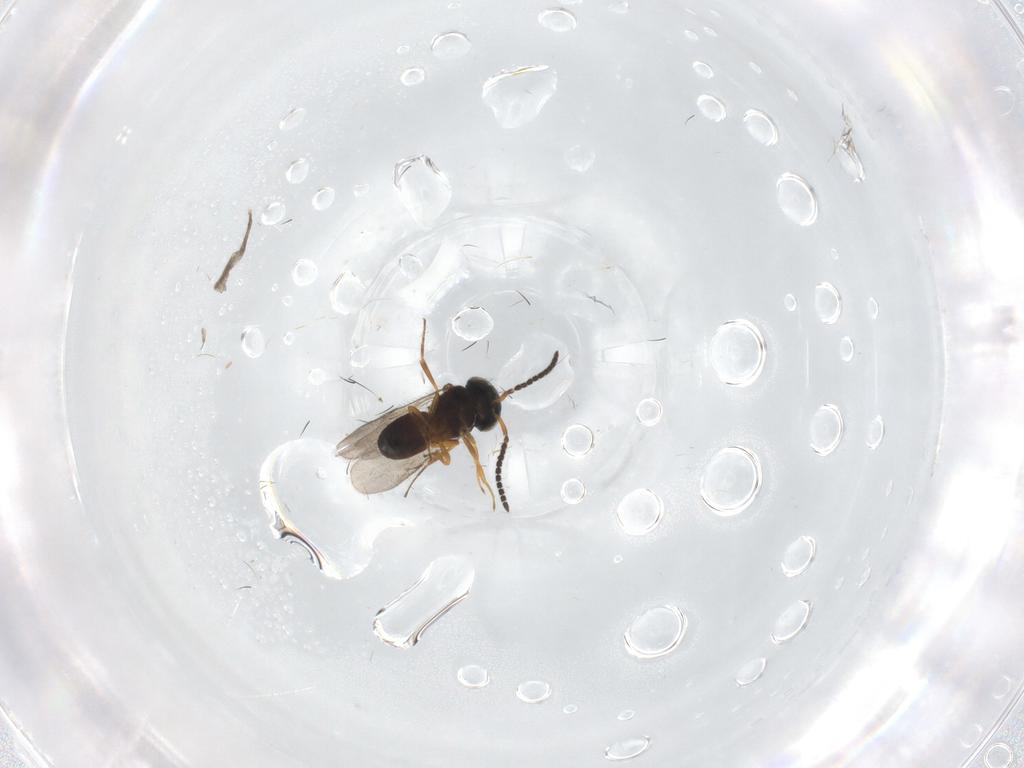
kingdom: Animalia
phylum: Arthropoda
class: Insecta
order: Hymenoptera
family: Scelionidae
